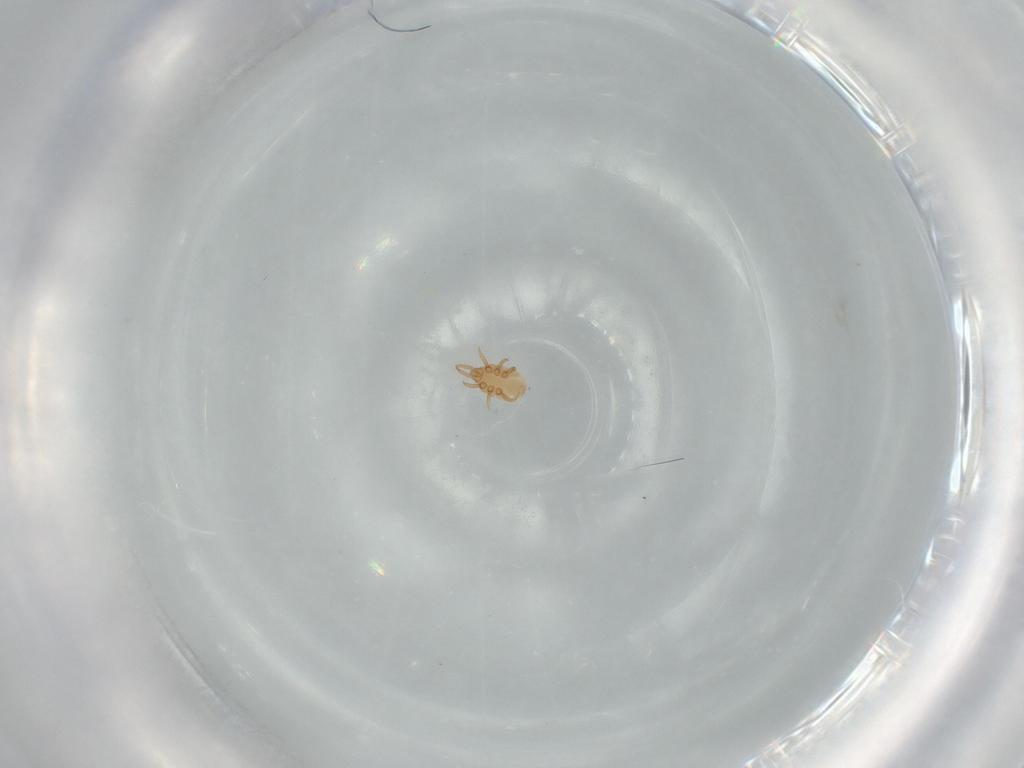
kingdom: Animalia
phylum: Arthropoda
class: Arachnida
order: Mesostigmata
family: Dinychidae
